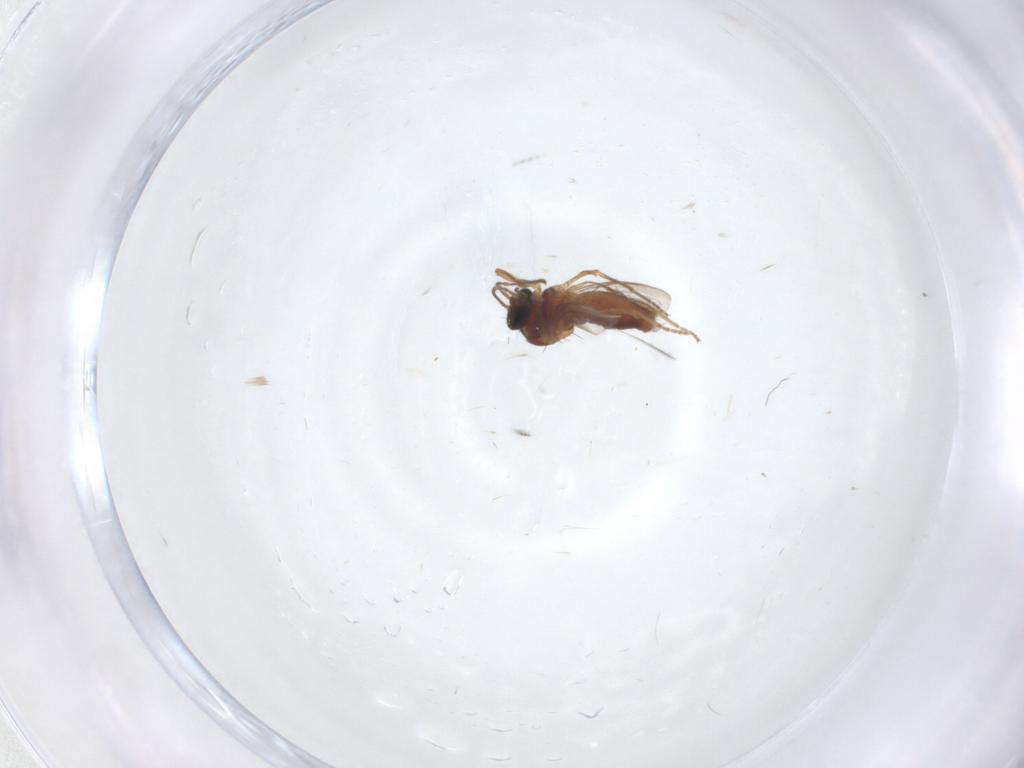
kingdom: Animalia
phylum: Arthropoda
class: Insecta
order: Diptera
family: Ceratopogonidae
